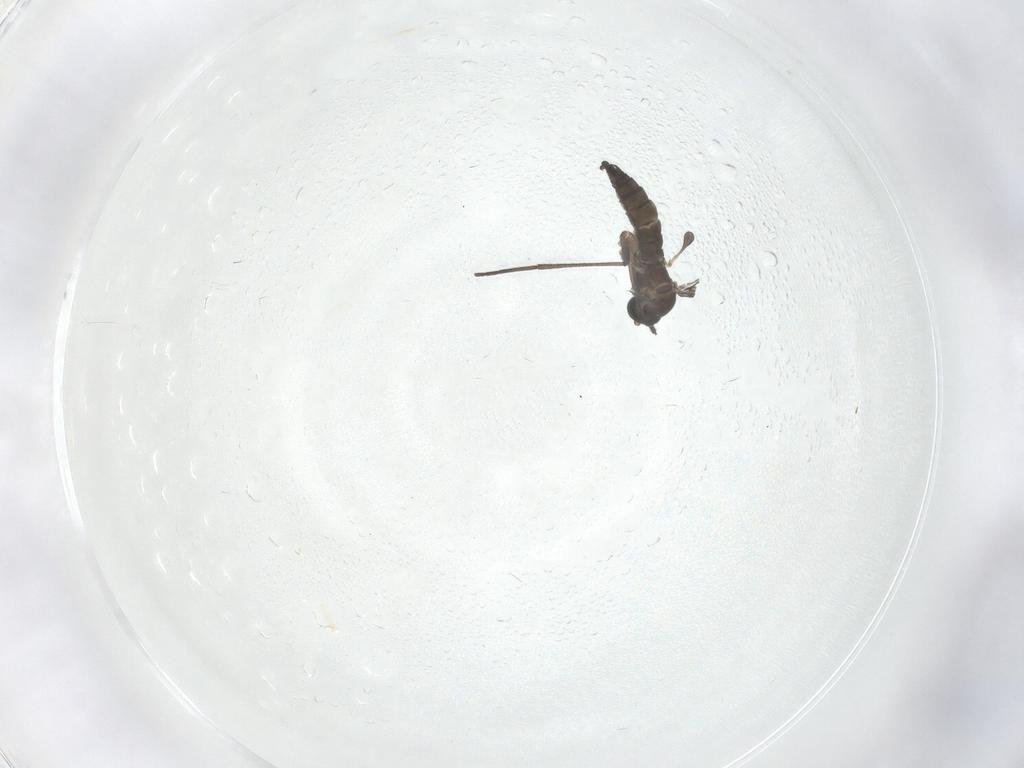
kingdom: Animalia
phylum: Arthropoda
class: Insecta
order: Diptera
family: Sciaridae
